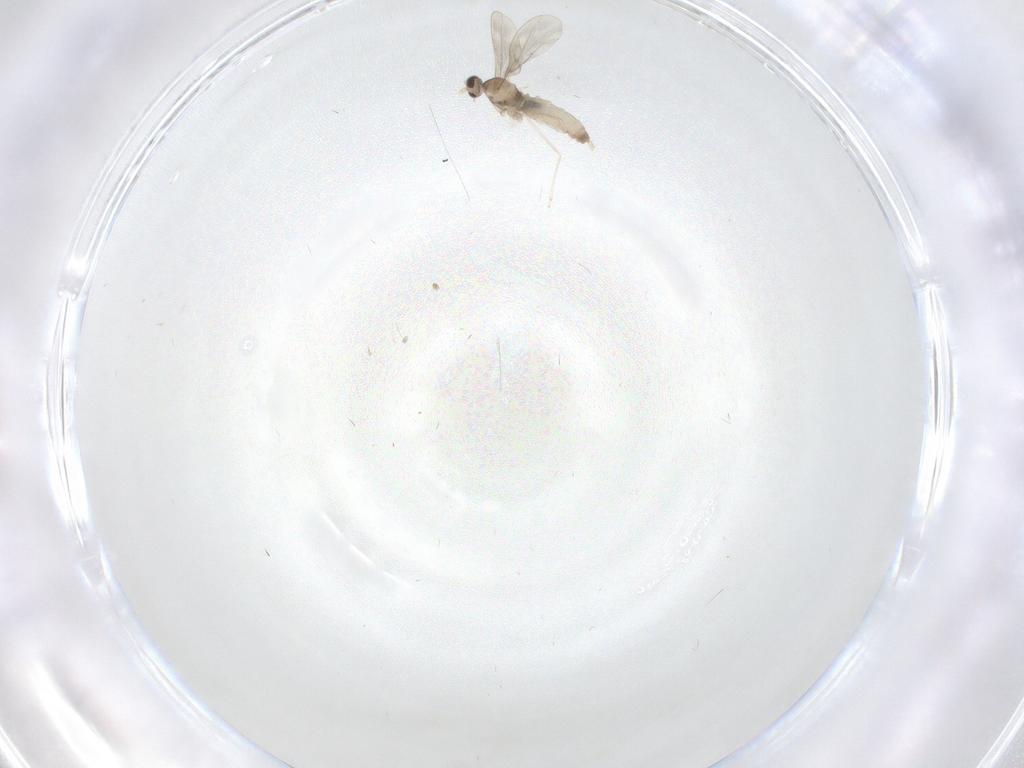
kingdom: Animalia
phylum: Arthropoda
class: Insecta
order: Diptera
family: Cecidomyiidae
